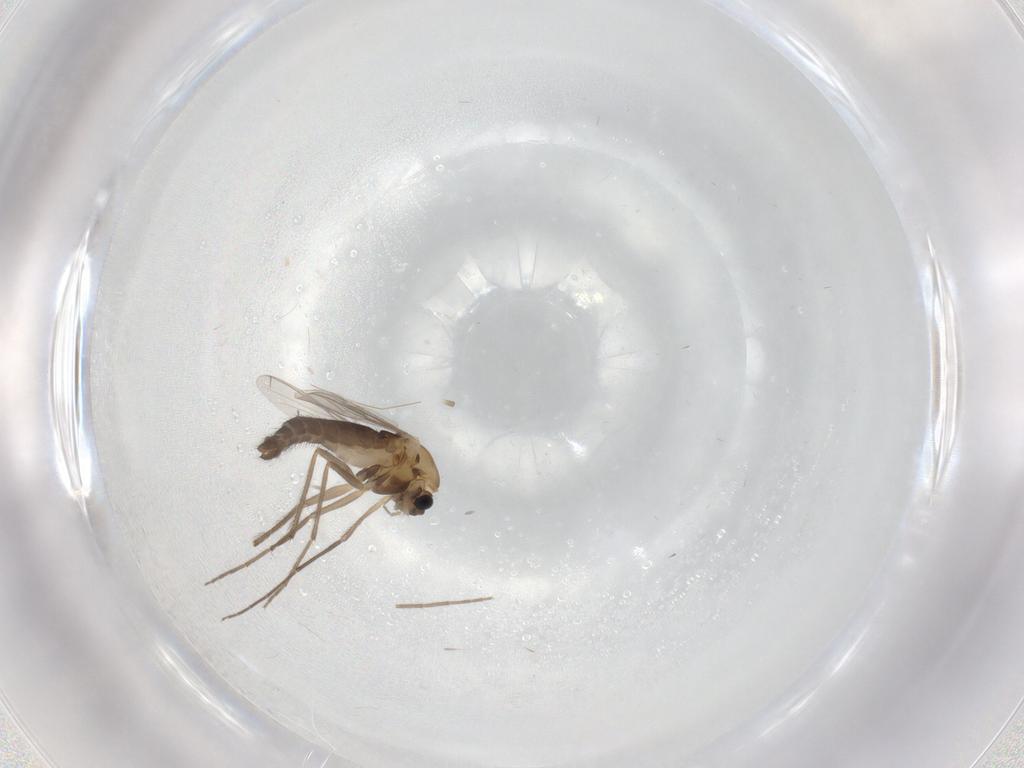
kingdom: Animalia
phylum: Arthropoda
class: Insecta
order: Diptera
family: Chironomidae
